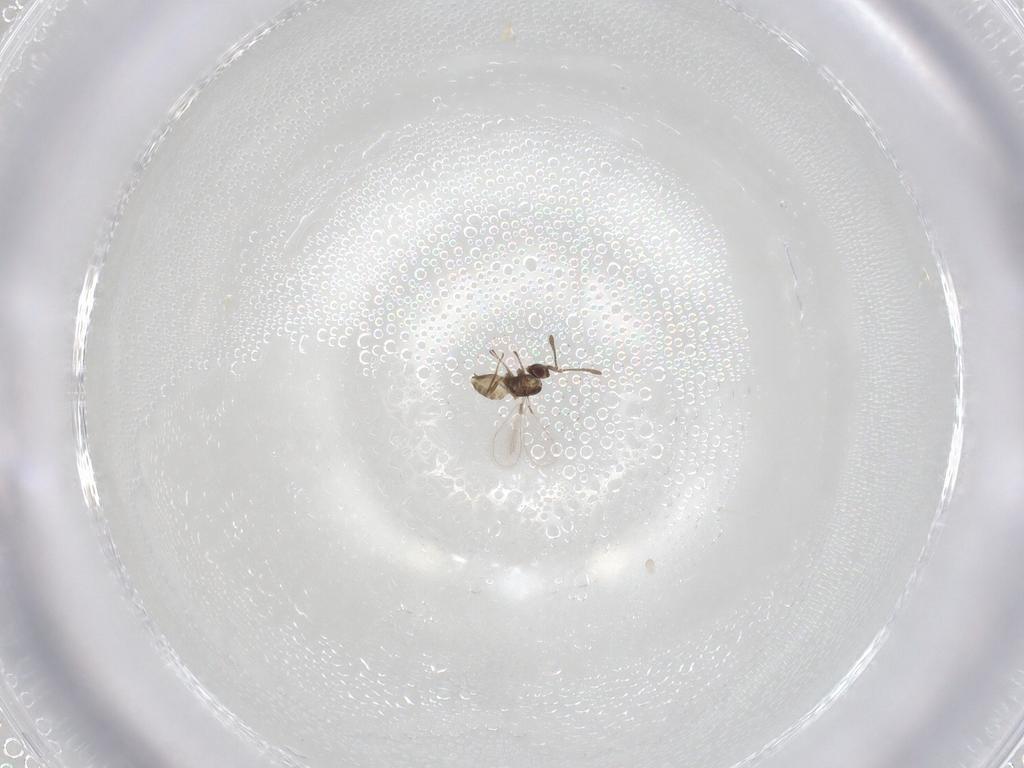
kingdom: Animalia
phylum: Arthropoda
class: Insecta
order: Hymenoptera
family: Mymaridae
